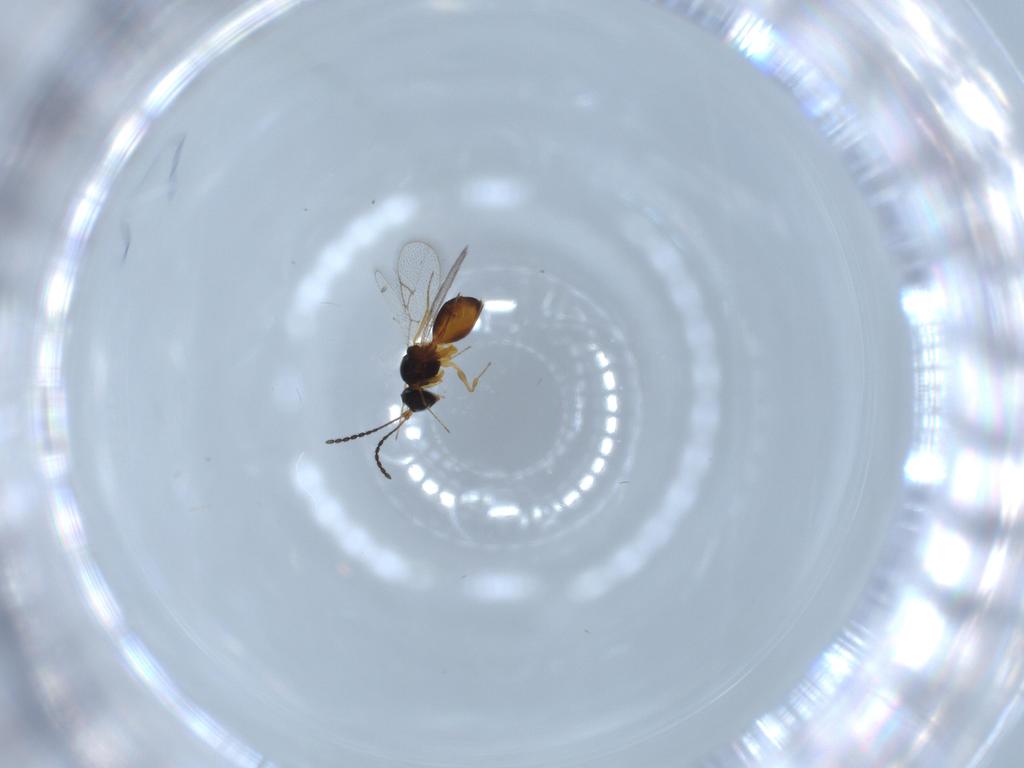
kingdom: Animalia
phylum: Arthropoda
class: Insecta
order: Hymenoptera
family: Figitidae
